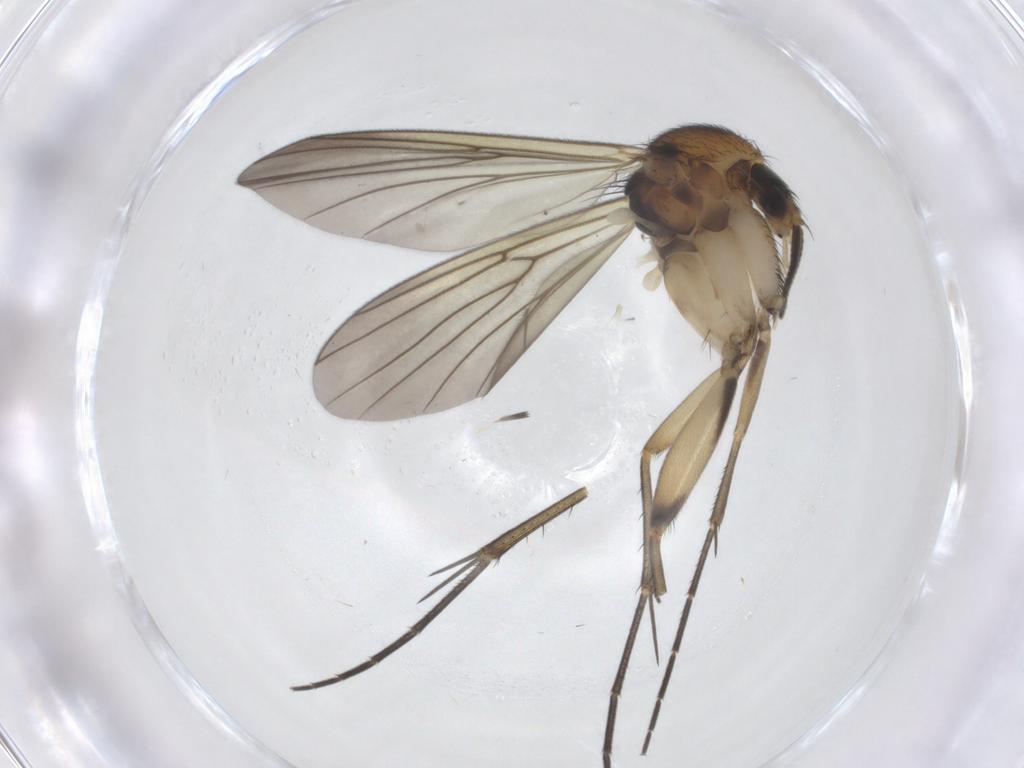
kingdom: Animalia
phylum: Arthropoda
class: Insecta
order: Diptera
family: Mycetophilidae
